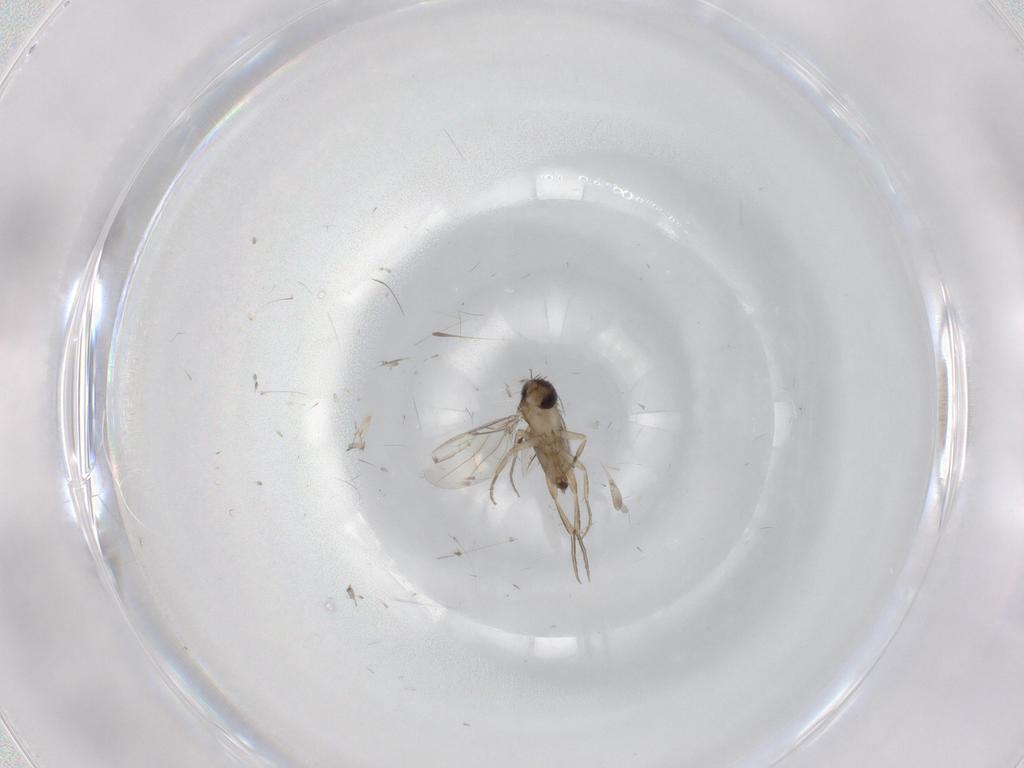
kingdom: Animalia
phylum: Arthropoda
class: Insecta
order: Diptera
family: Phoridae
